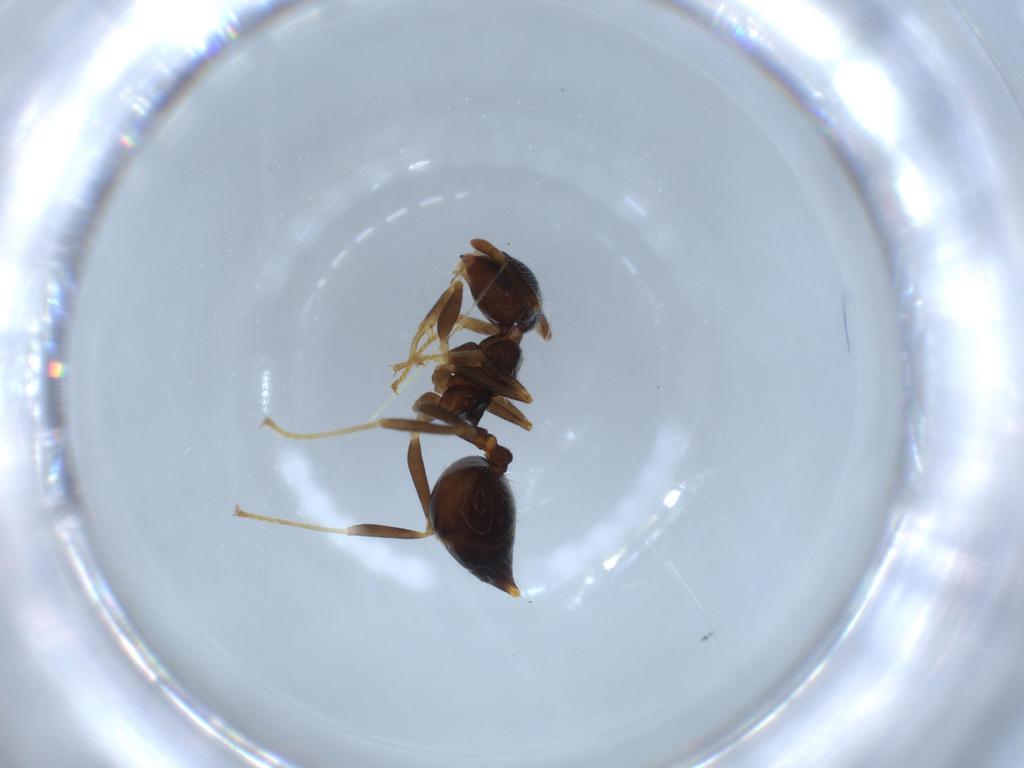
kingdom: Animalia
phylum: Arthropoda
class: Insecta
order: Hymenoptera
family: Formicidae
